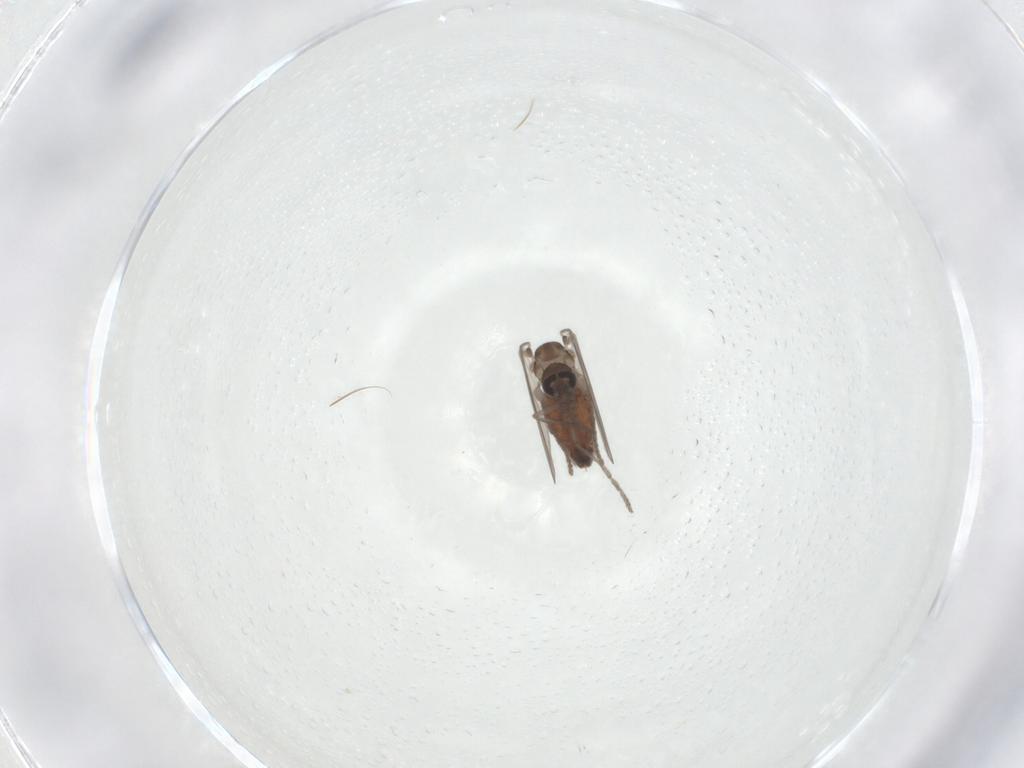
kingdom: Animalia
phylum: Arthropoda
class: Insecta
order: Diptera
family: Psychodidae
